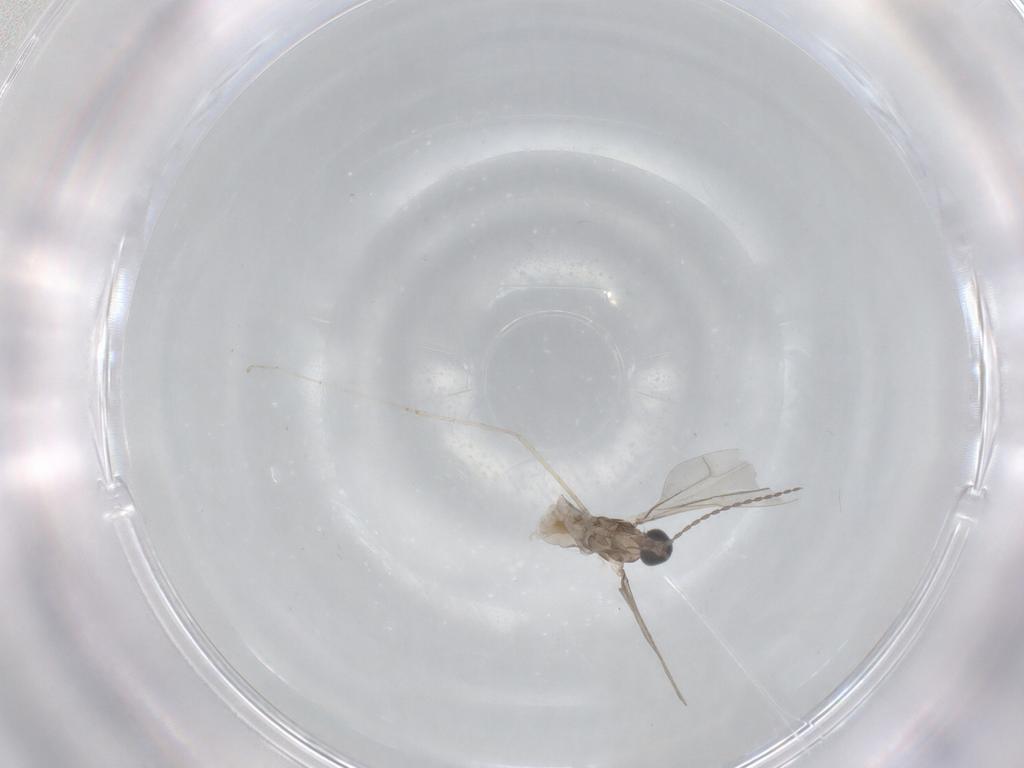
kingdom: Animalia
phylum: Arthropoda
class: Insecta
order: Diptera
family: Cecidomyiidae
